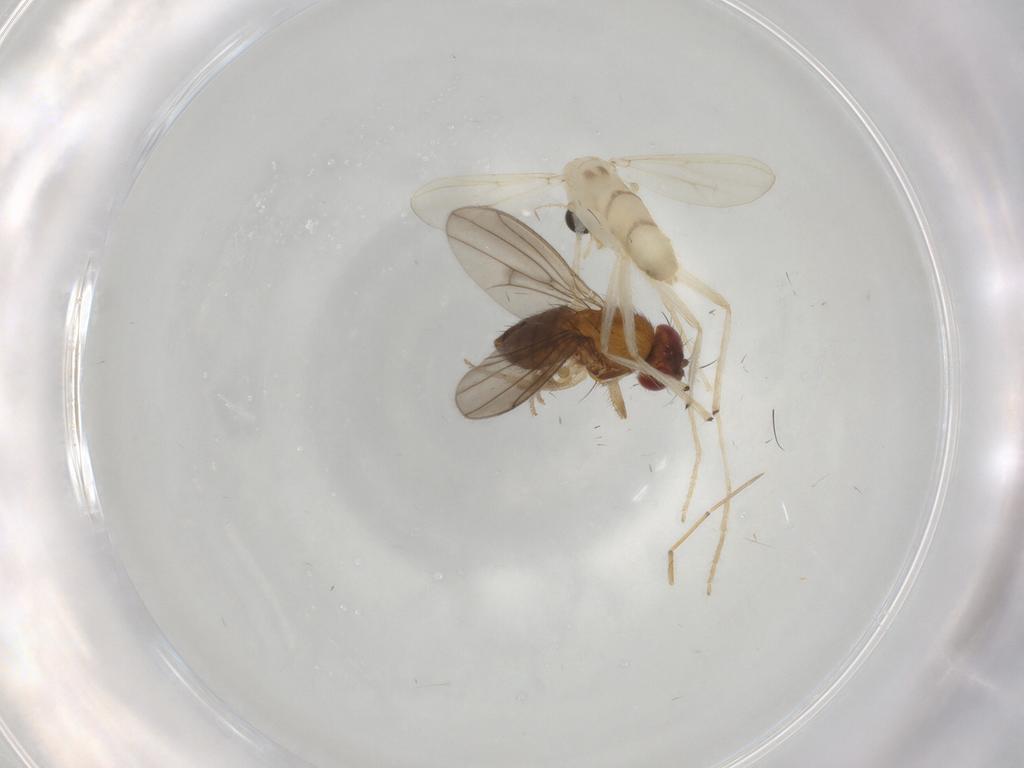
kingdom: Animalia
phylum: Arthropoda
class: Insecta
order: Diptera
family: Chironomidae
